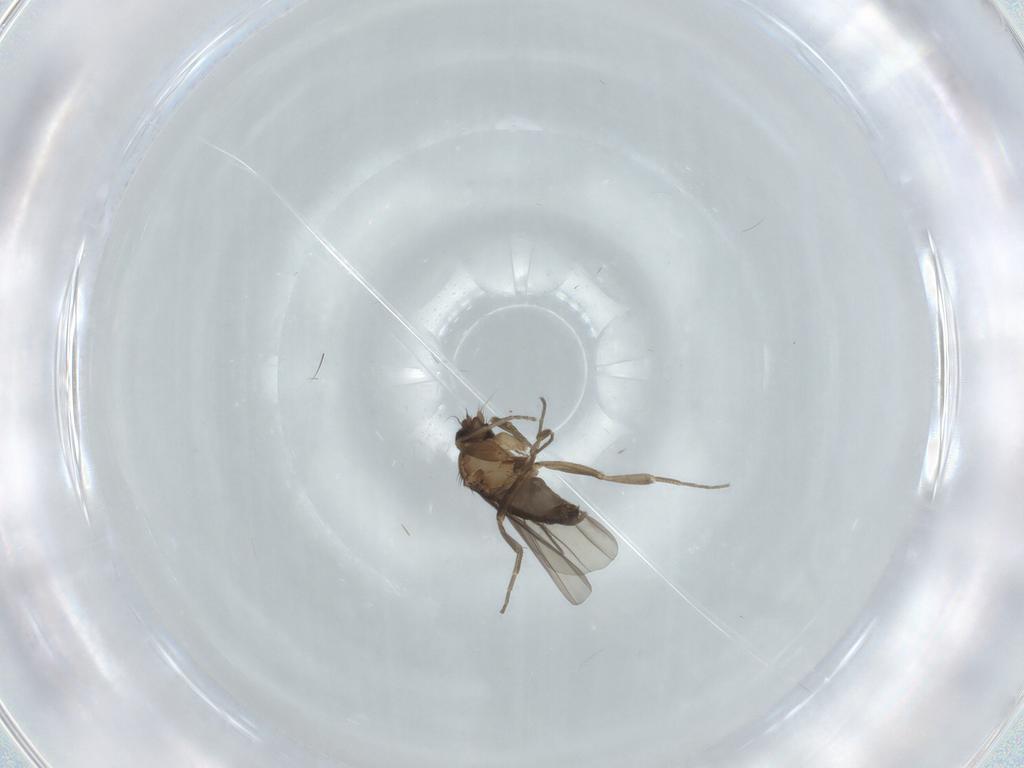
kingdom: Animalia
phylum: Arthropoda
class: Insecta
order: Diptera
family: Phoridae
